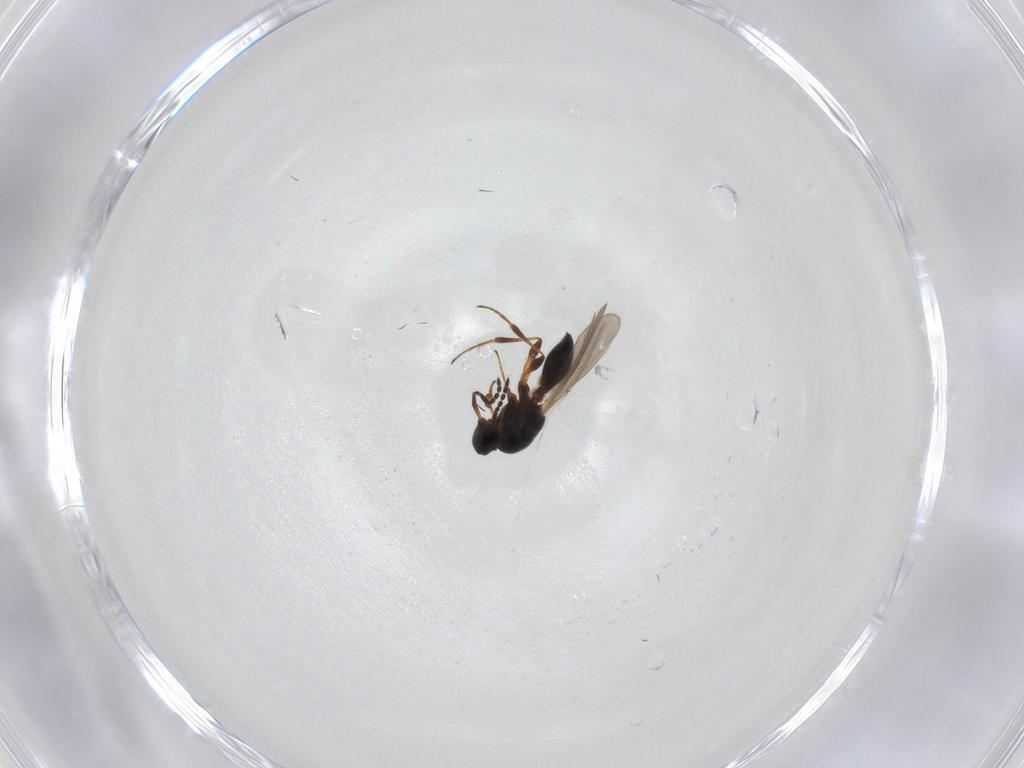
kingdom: Animalia
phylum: Arthropoda
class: Insecta
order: Hymenoptera
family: Platygastridae
